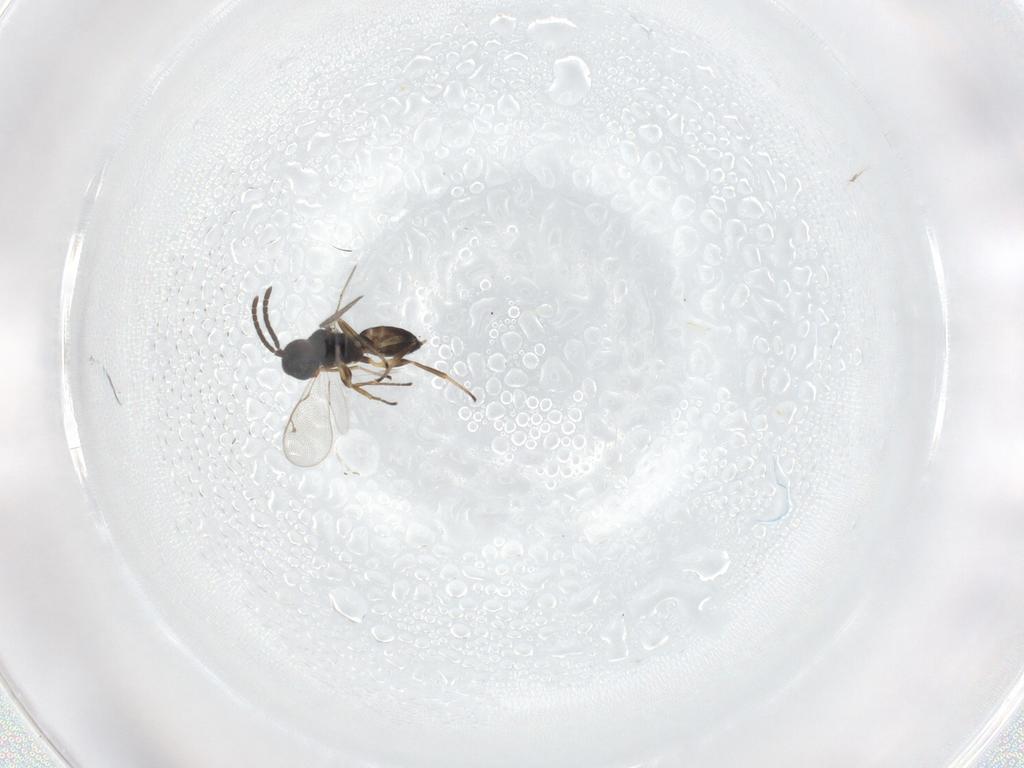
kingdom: Animalia
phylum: Arthropoda
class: Insecta
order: Hymenoptera
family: Eupelmidae
